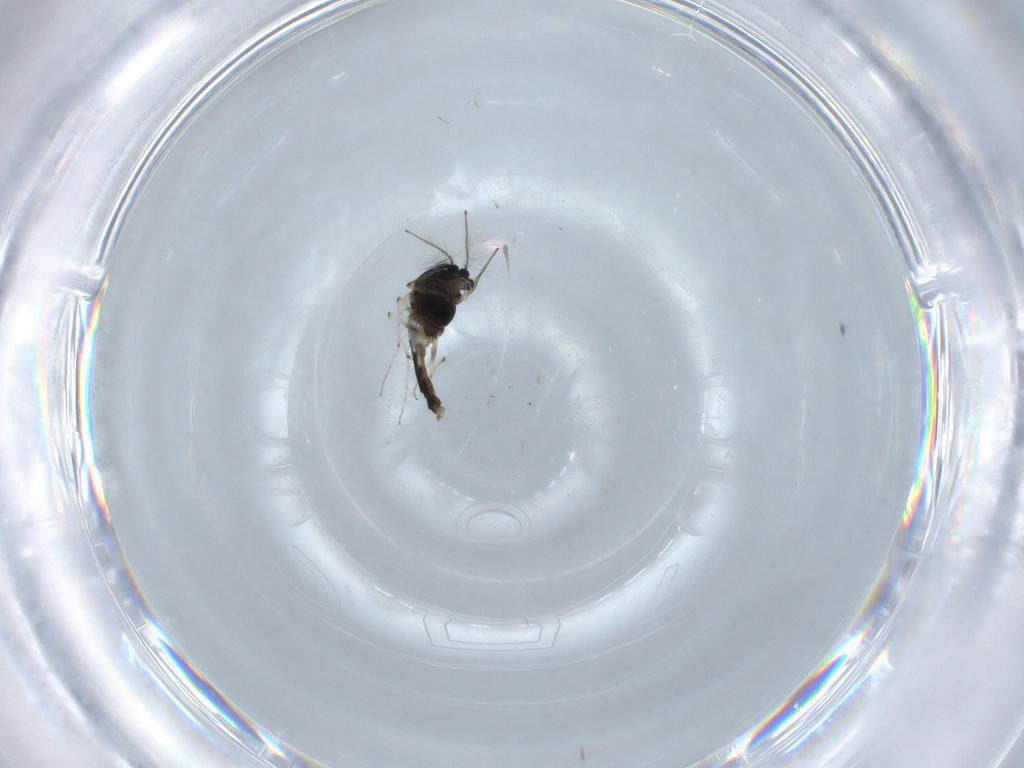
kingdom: Animalia
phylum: Arthropoda
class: Insecta
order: Diptera
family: Chironomidae
